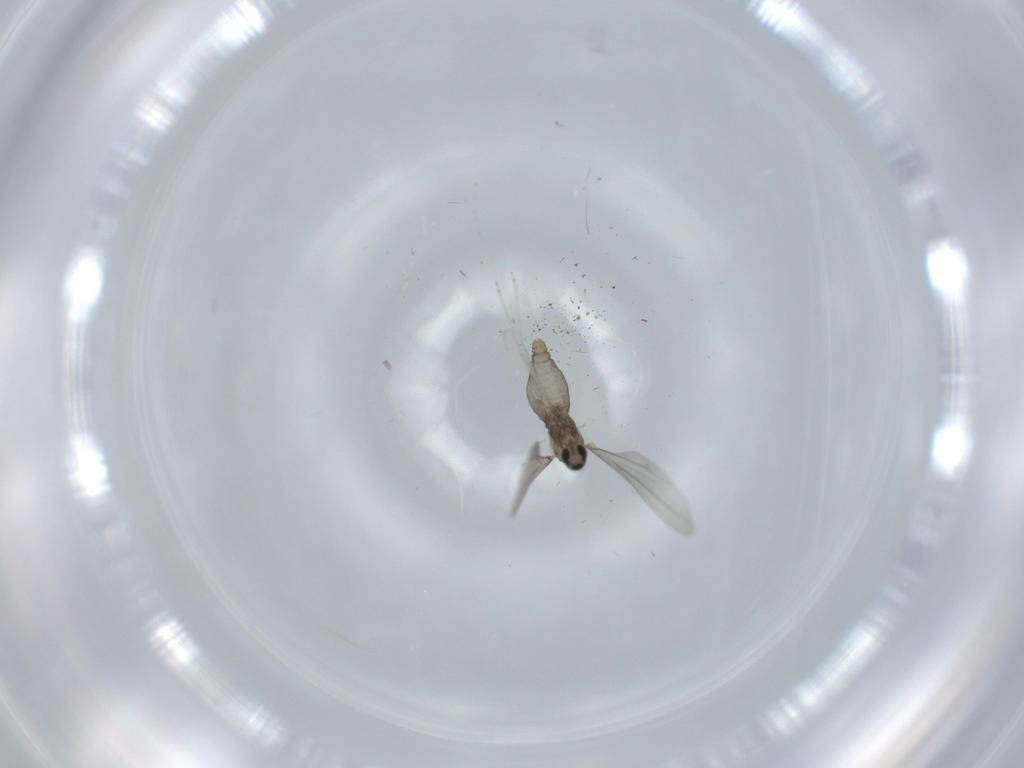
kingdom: Animalia
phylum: Arthropoda
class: Insecta
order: Diptera
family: Cecidomyiidae
